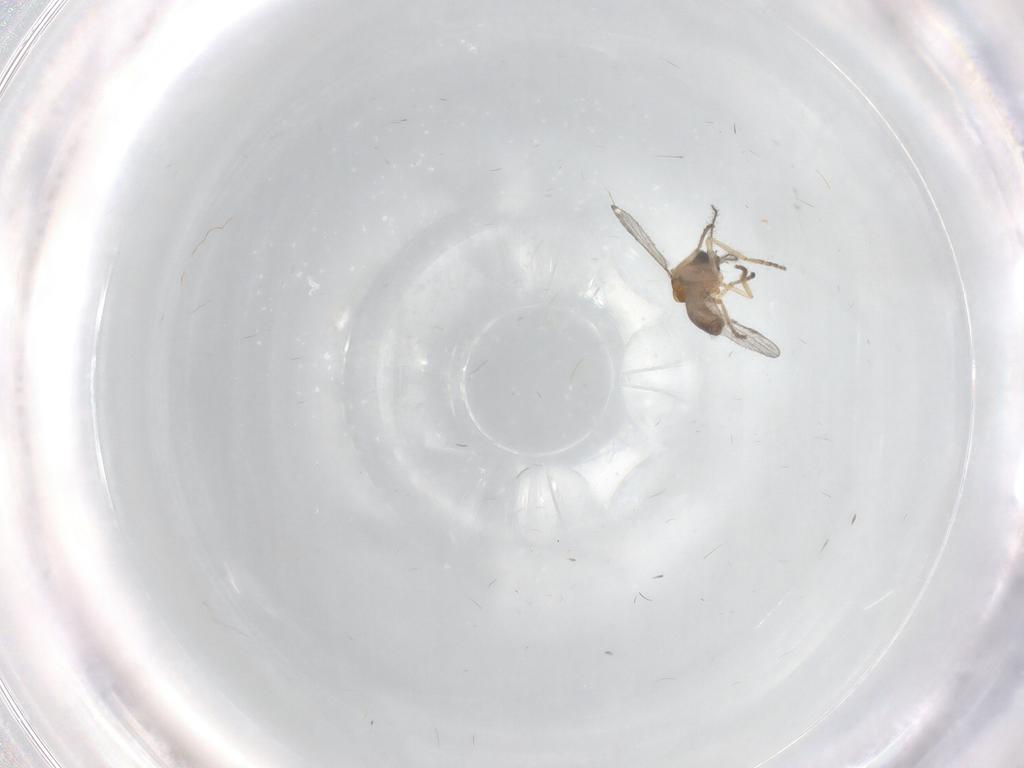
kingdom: Animalia
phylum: Arthropoda
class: Insecta
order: Diptera
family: Ceratopogonidae
